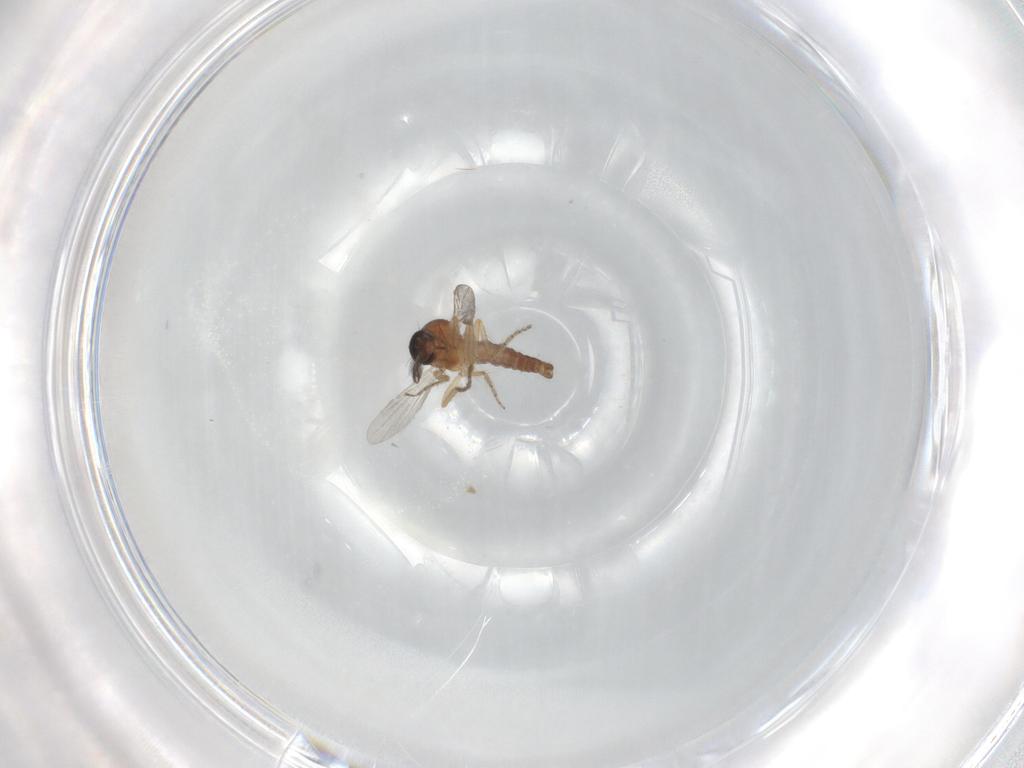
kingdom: Animalia
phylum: Arthropoda
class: Insecta
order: Diptera
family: Ceratopogonidae
